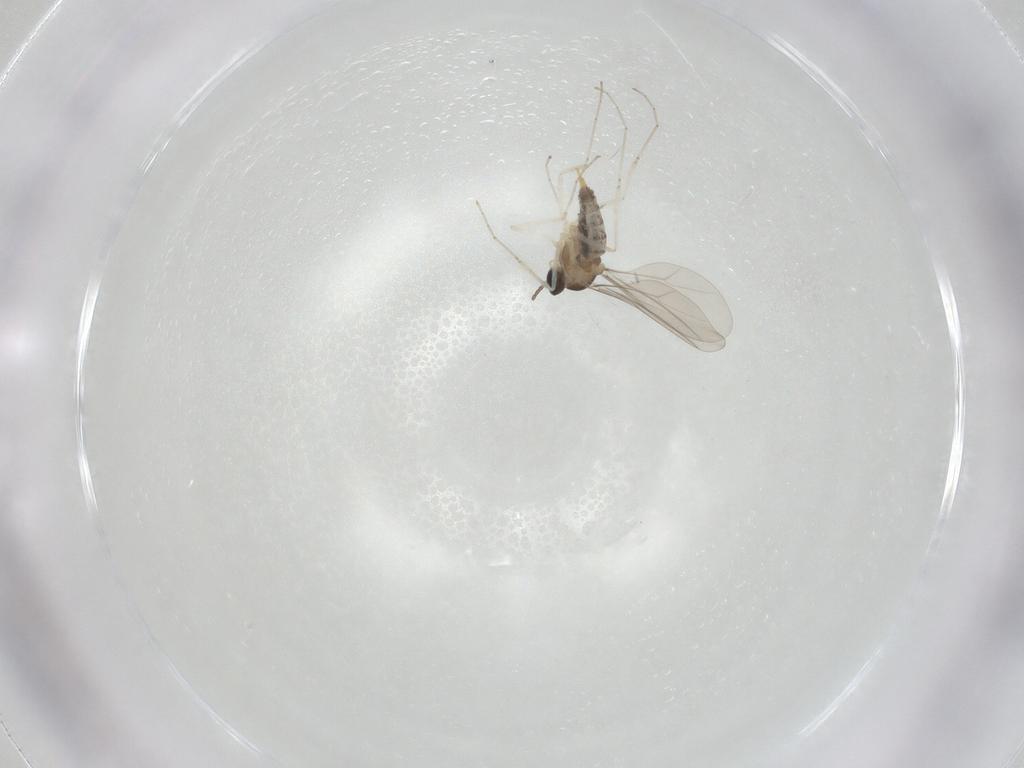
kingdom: Animalia
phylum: Arthropoda
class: Insecta
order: Diptera
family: Cecidomyiidae
